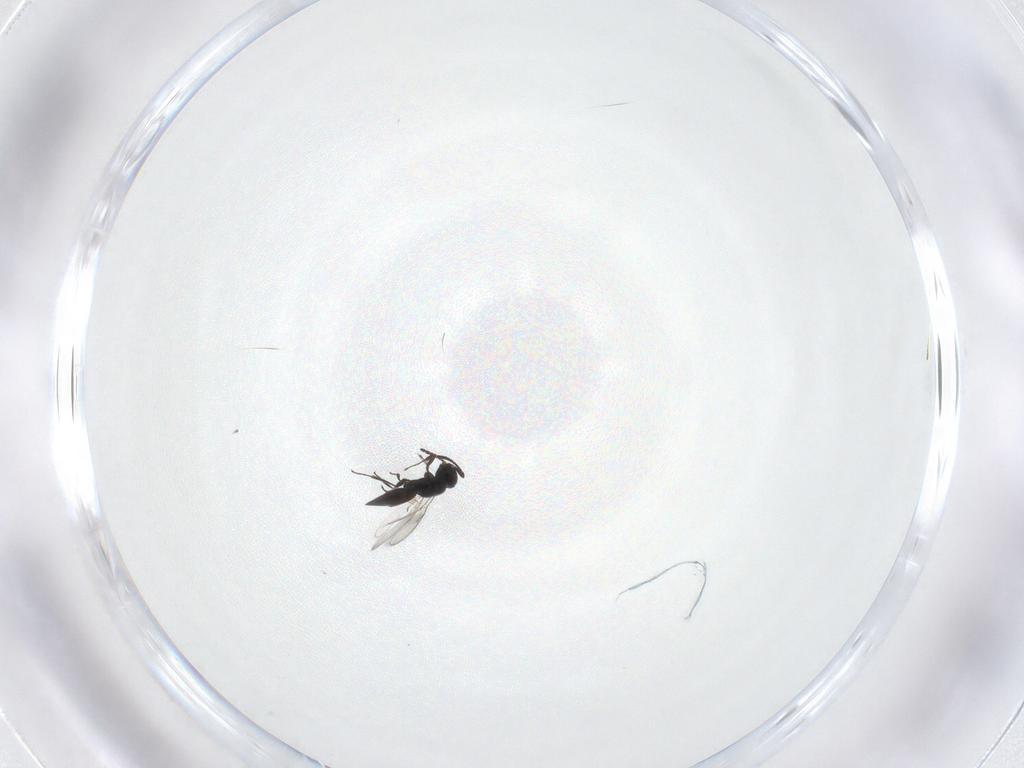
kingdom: Animalia
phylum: Arthropoda
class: Insecta
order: Hymenoptera
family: Scelionidae
